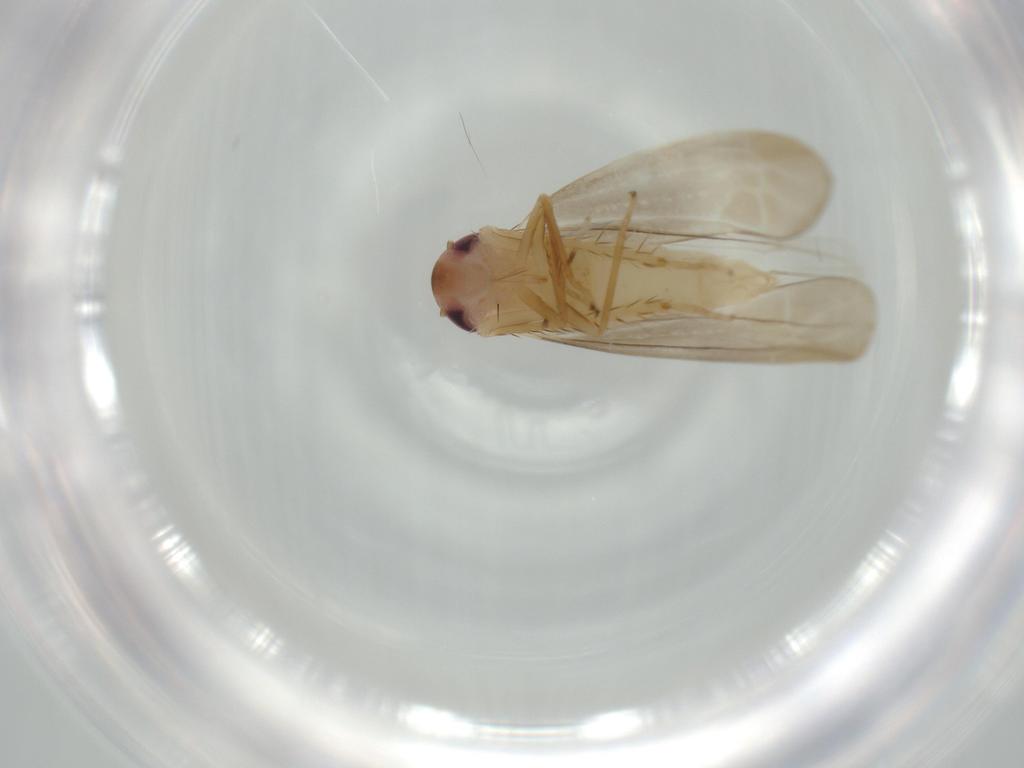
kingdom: Animalia
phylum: Arthropoda
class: Insecta
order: Hemiptera
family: Cicadellidae
